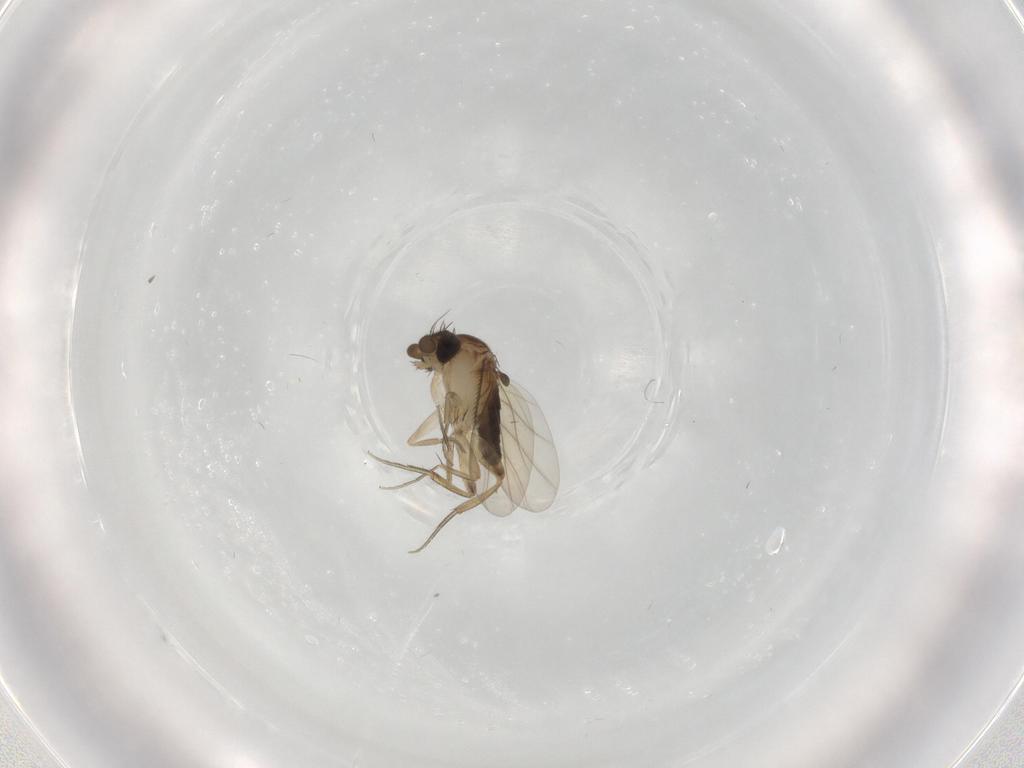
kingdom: Animalia
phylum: Arthropoda
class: Insecta
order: Diptera
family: Phoridae
